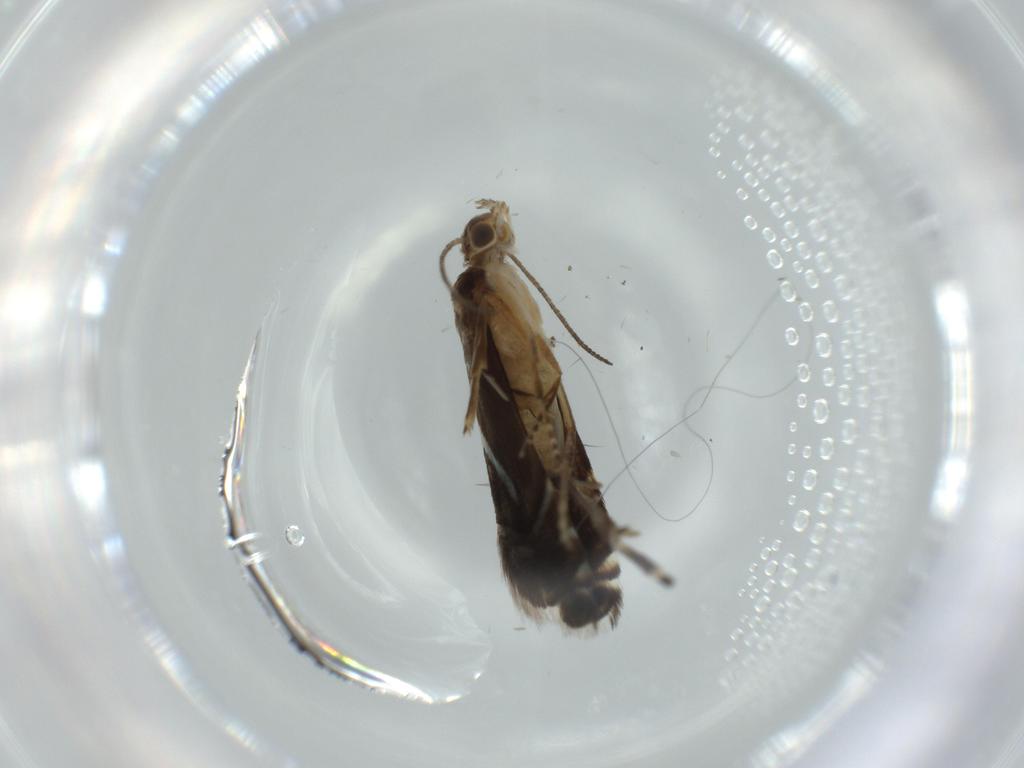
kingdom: Animalia
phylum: Arthropoda
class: Insecta
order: Lepidoptera
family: Glyphipterigidae
